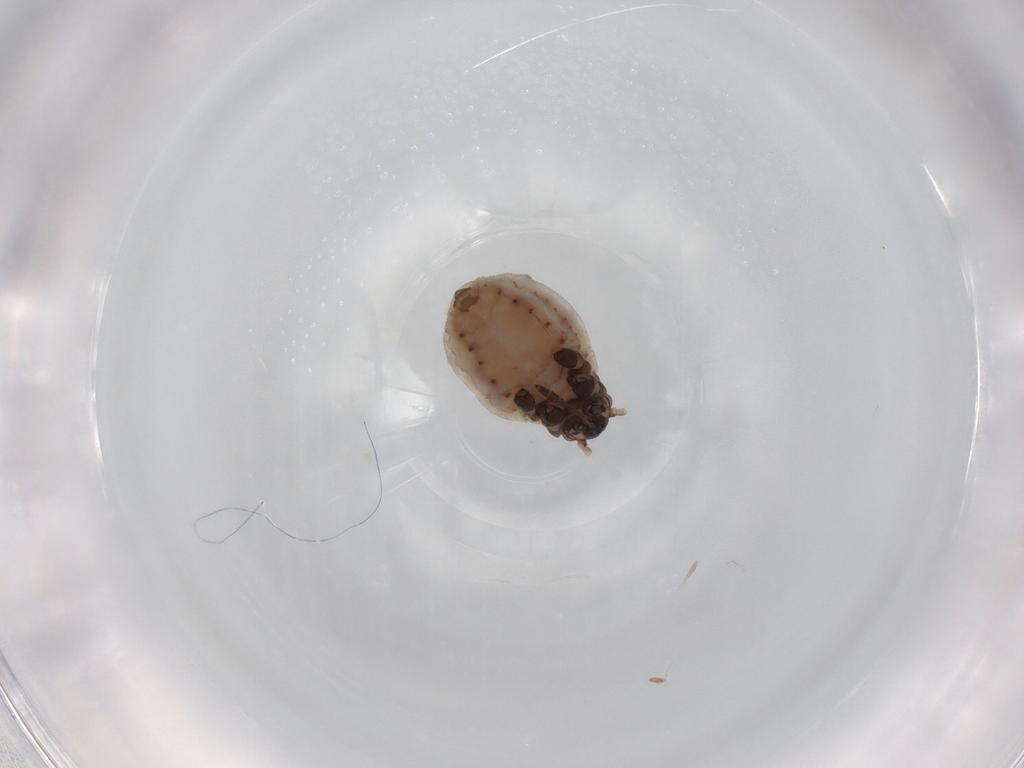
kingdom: Animalia
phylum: Arthropoda
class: Insecta
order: Hemiptera
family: Aphididae
